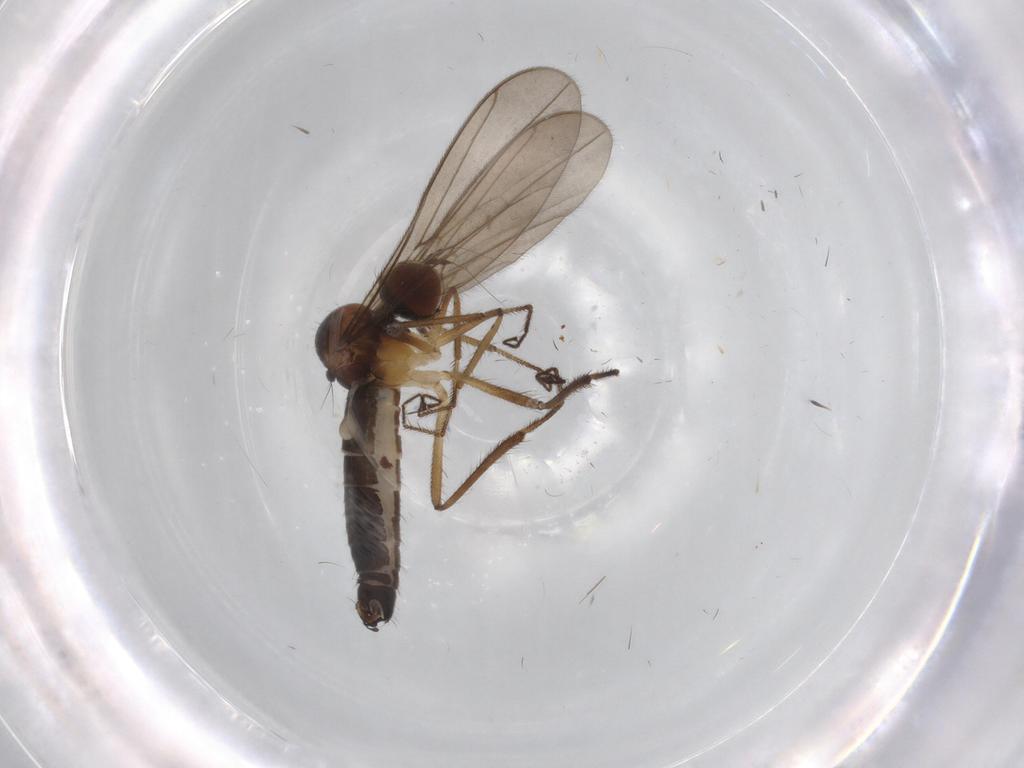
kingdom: Animalia
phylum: Arthropoda
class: Insecta
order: Diptera
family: Hybotidae
